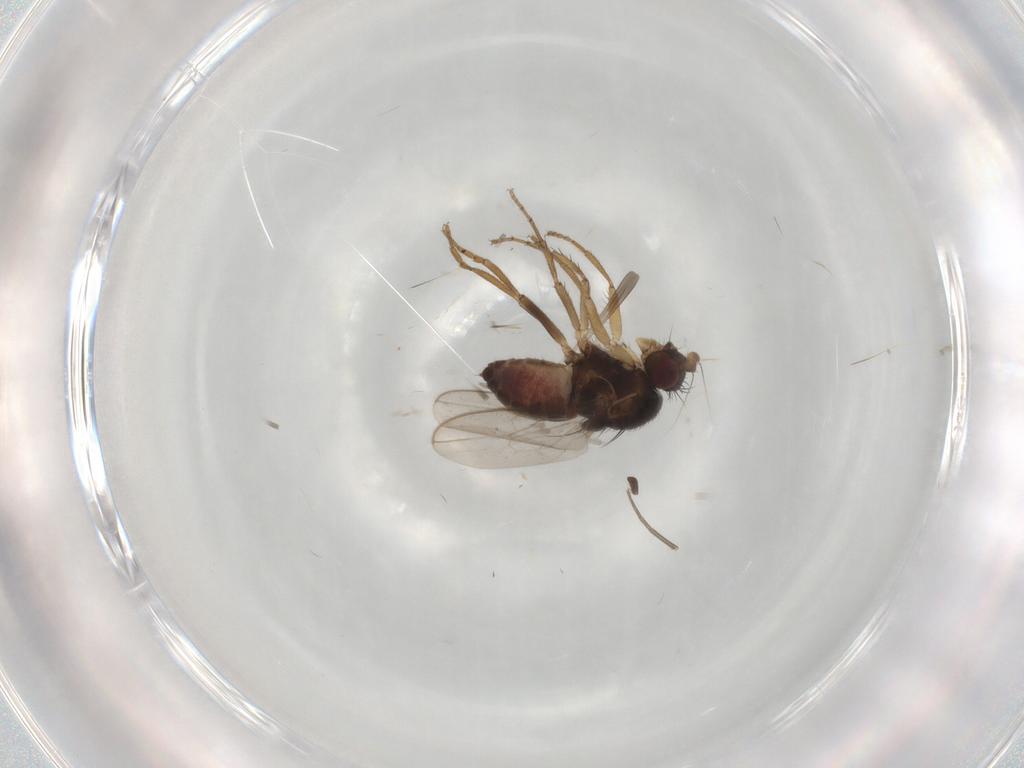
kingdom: Animalia
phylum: Arthropoda
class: Insecta
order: Diptera
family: Sphaeroceridae
